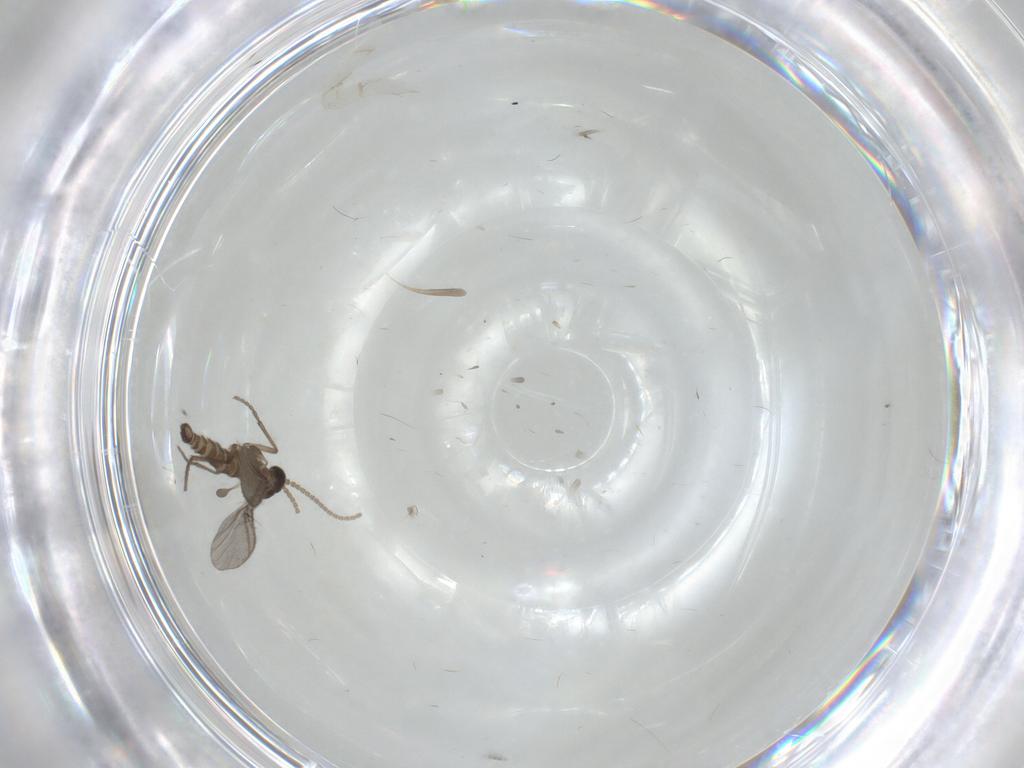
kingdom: Animalia
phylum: Arthropoda
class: Insecta
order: Diptera
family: Sciaridae
